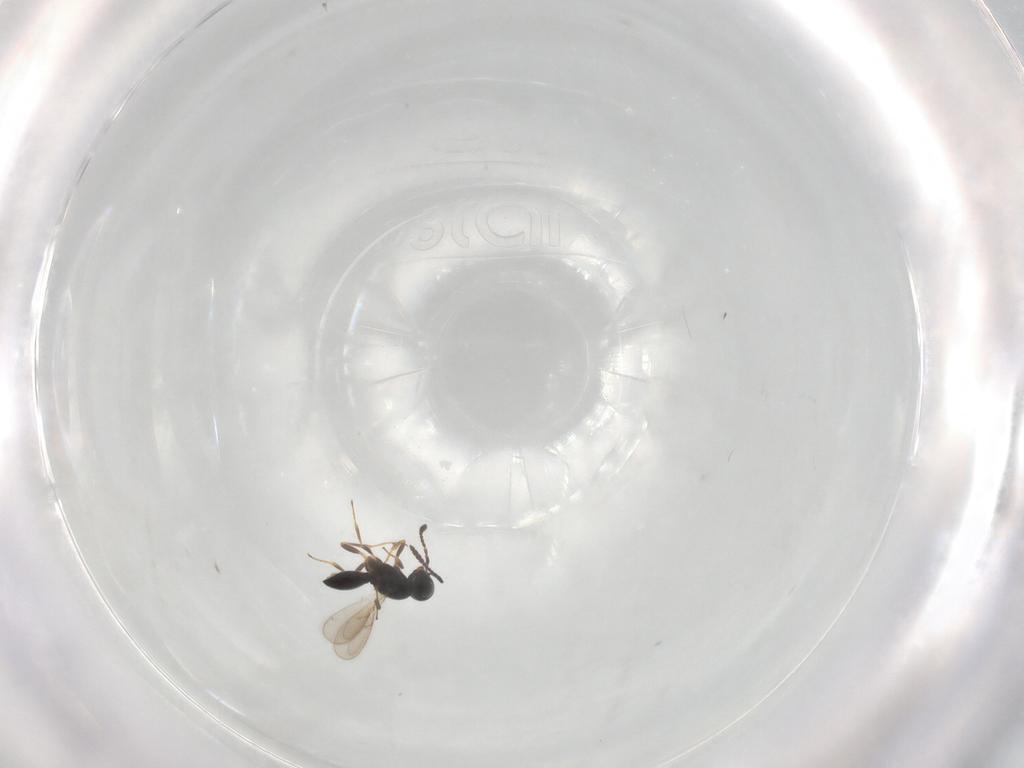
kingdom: Animalia
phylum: Arthropoda
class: Insecta
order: Hymenoptera
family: Scelionidae
